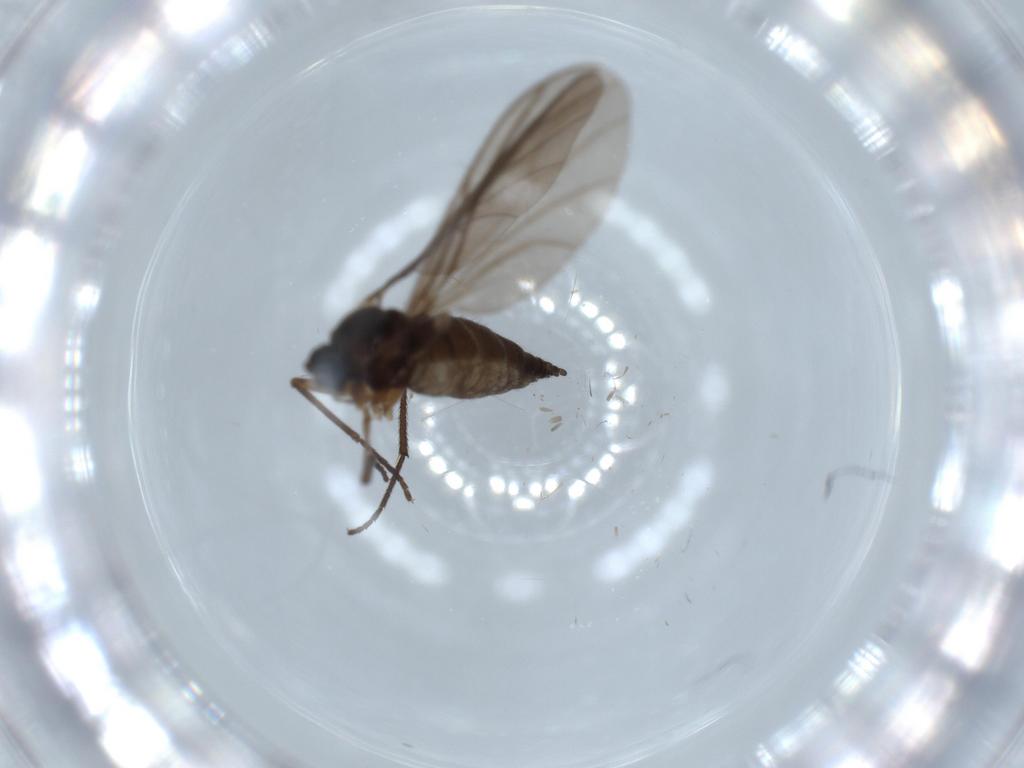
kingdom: Animalia
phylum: Arthropoda
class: Insecta
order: Diptera
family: Sciaridae
